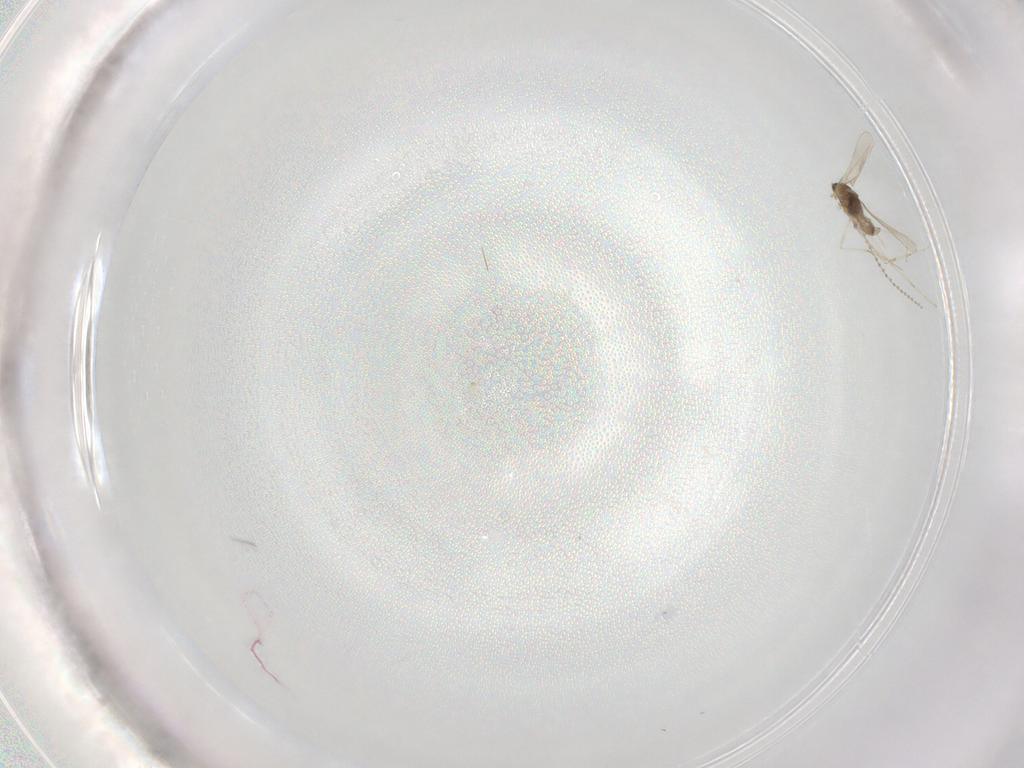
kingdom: Animalia
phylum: Arthropoda
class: Insecta
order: Diptera
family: Cecidomyiidae
